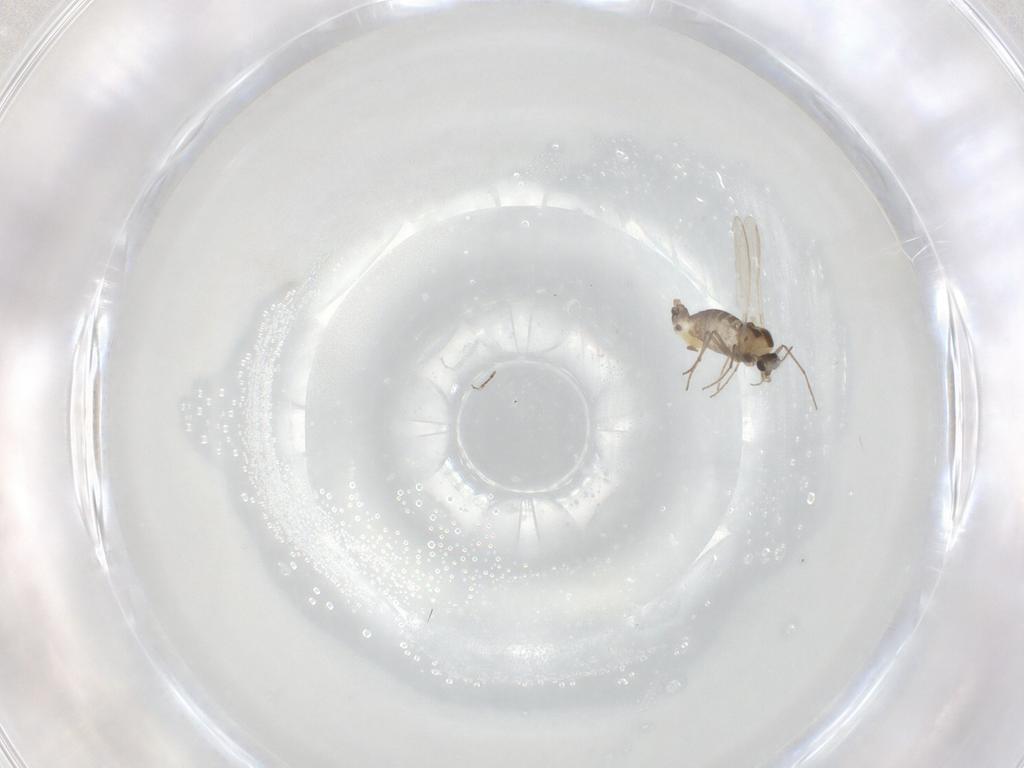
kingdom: Animalia
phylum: Arthropoda
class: Insecta
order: Diptera
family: Muscidae
